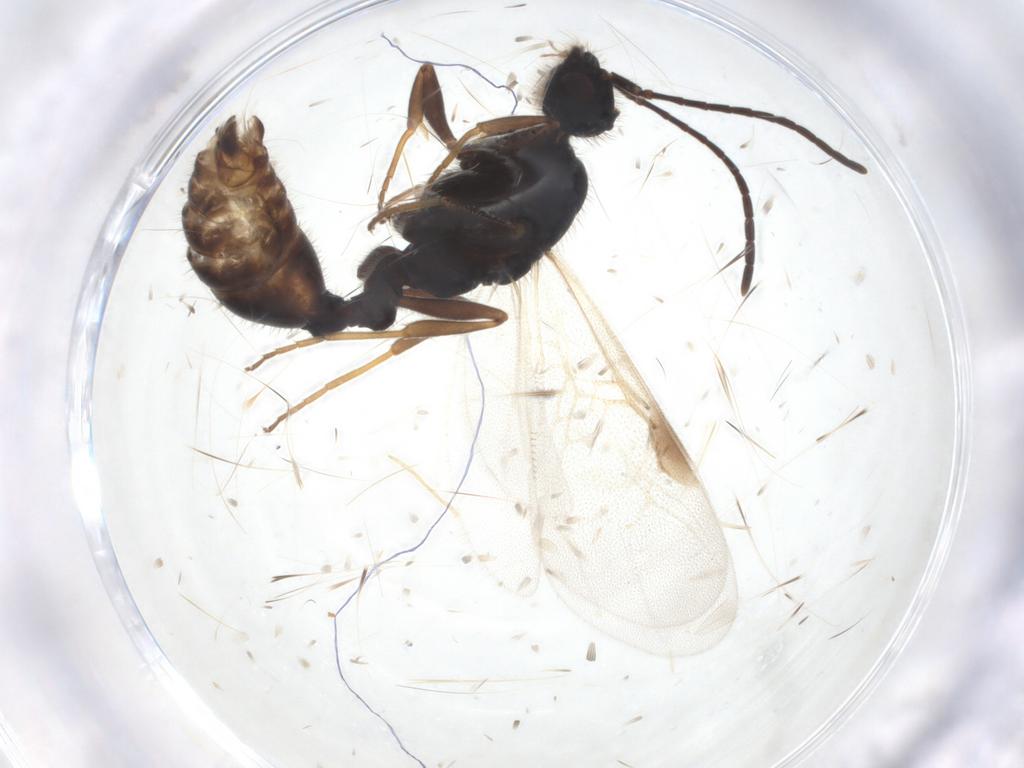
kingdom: Animalia
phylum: Arthropoda
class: Insecta
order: Hymenoptera
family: Formicidae
